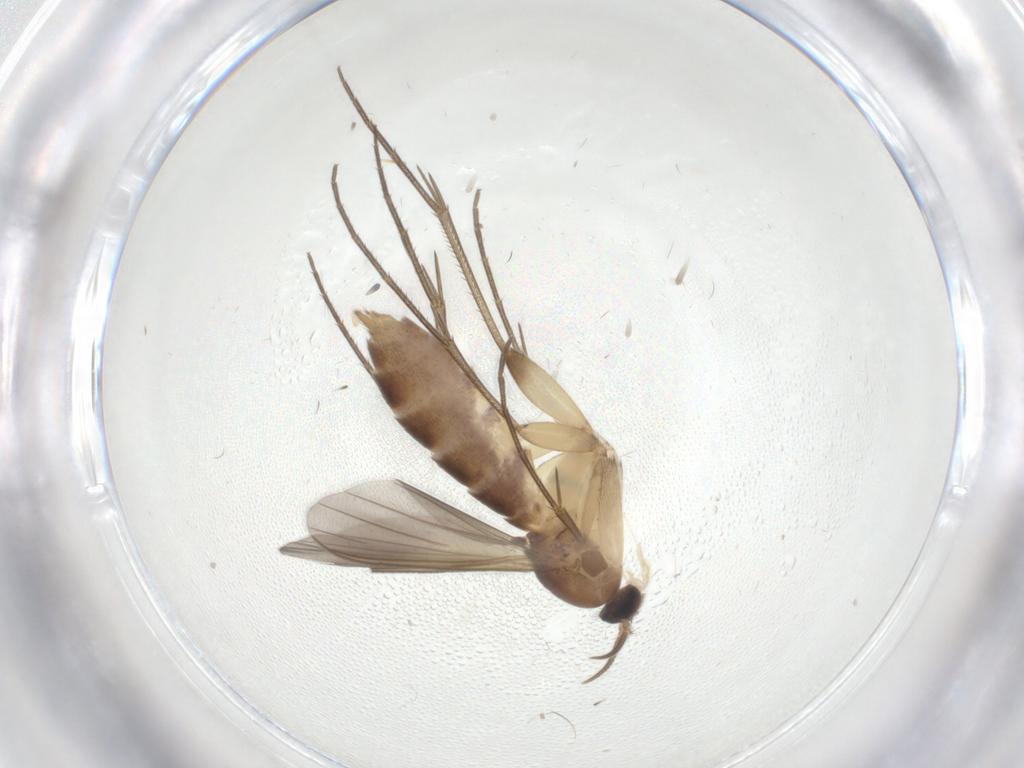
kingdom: Animalia
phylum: Arthropoda
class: Insecta
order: Diptera
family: Mycetophilidae
